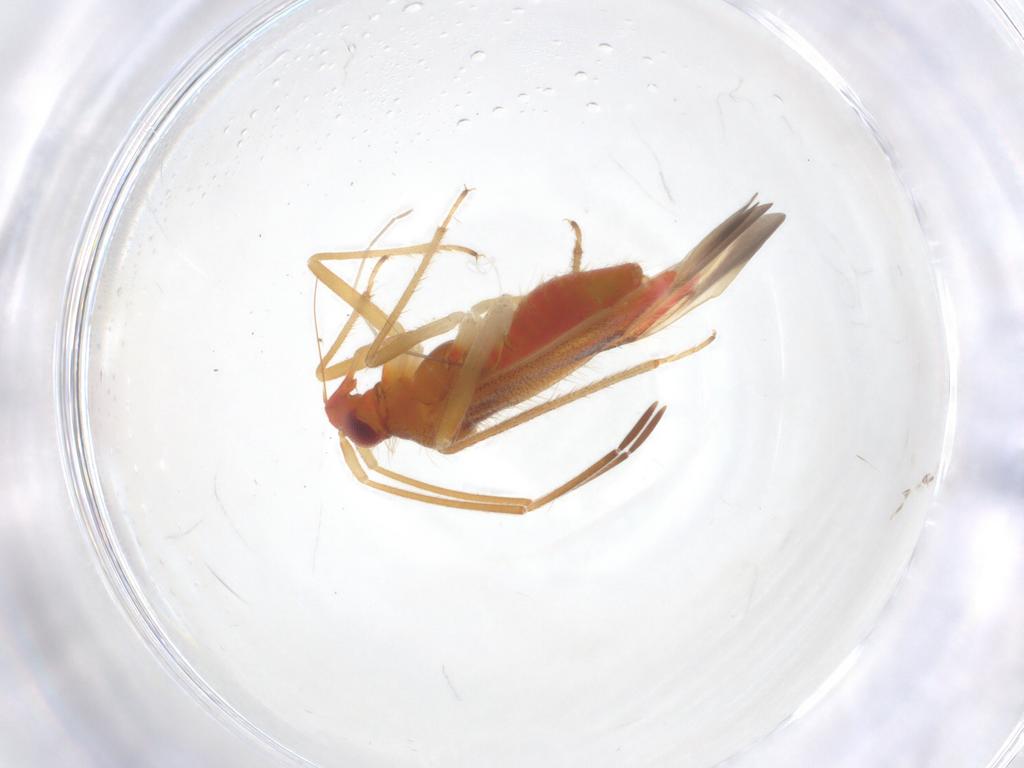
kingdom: Animalia
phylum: Arthropoda
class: Insecta
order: Hemiptera
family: Miridae
